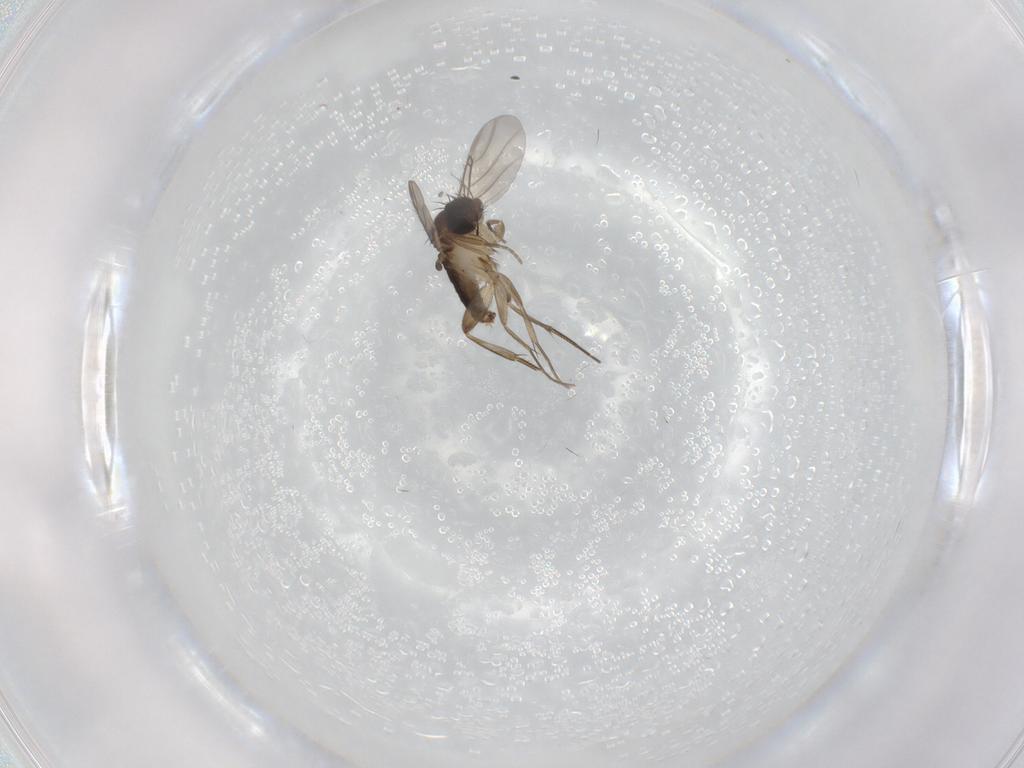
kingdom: Animalia
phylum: Arthropoda
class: Insecta
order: Diptera
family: Phoridae
